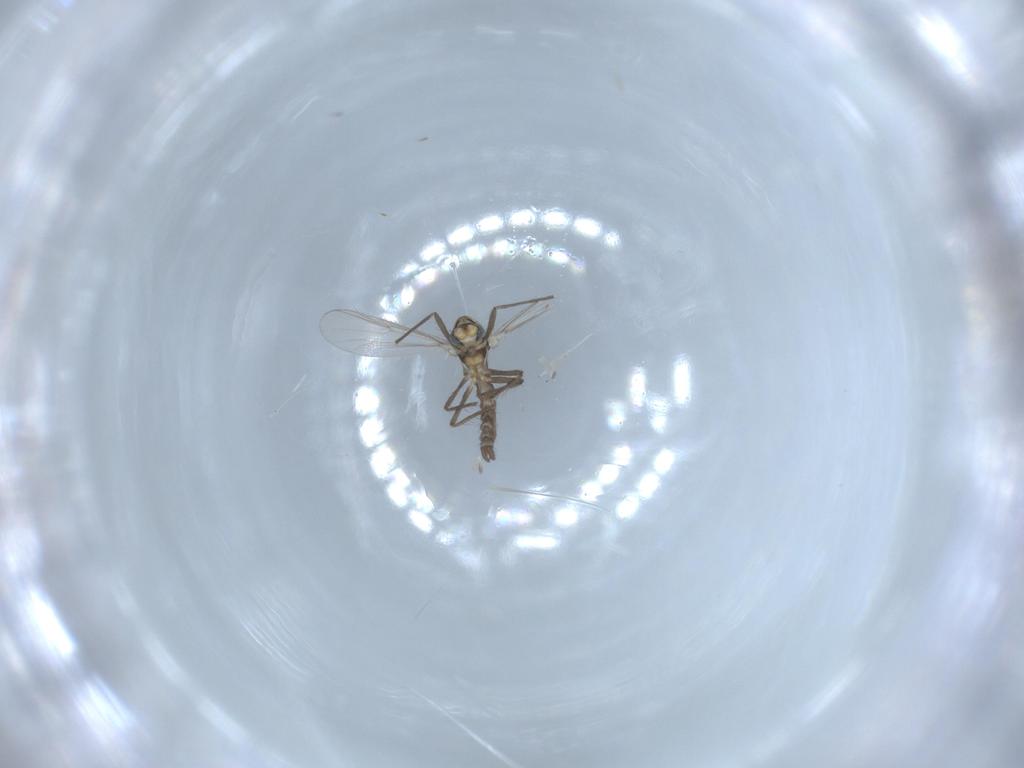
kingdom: Animalia
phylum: Arthropoda
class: Insecta
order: Diptera
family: Chironomidae
